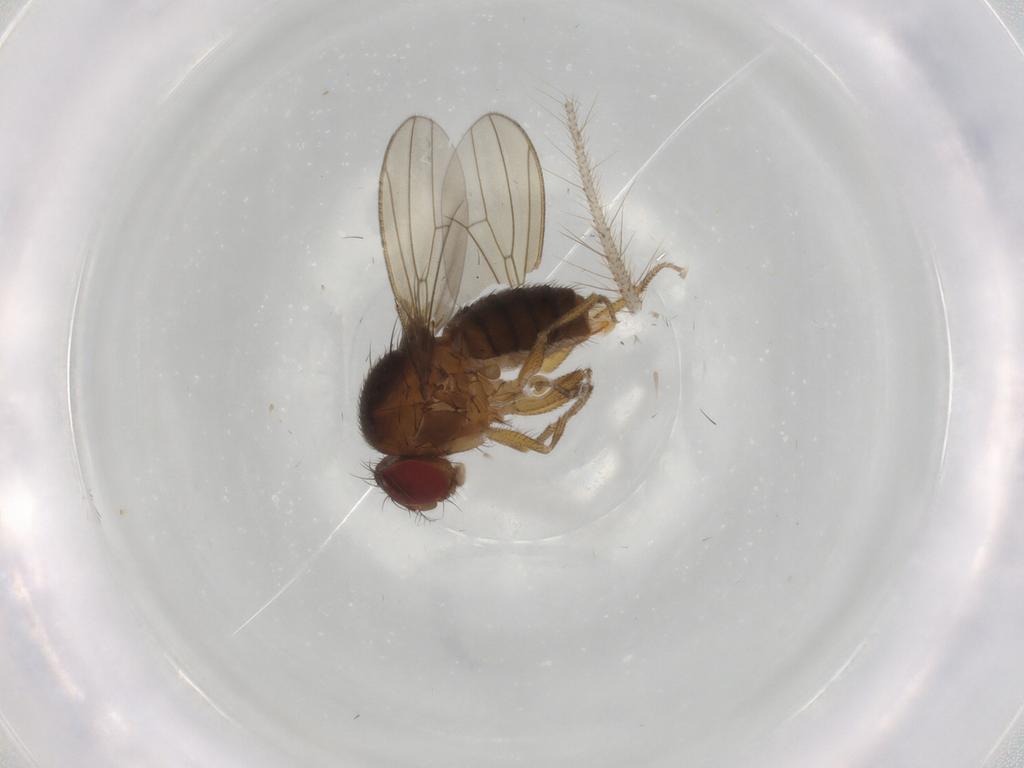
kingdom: Animalia
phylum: Arthropoda
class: Insecta
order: Diptera
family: Drosophilidae
